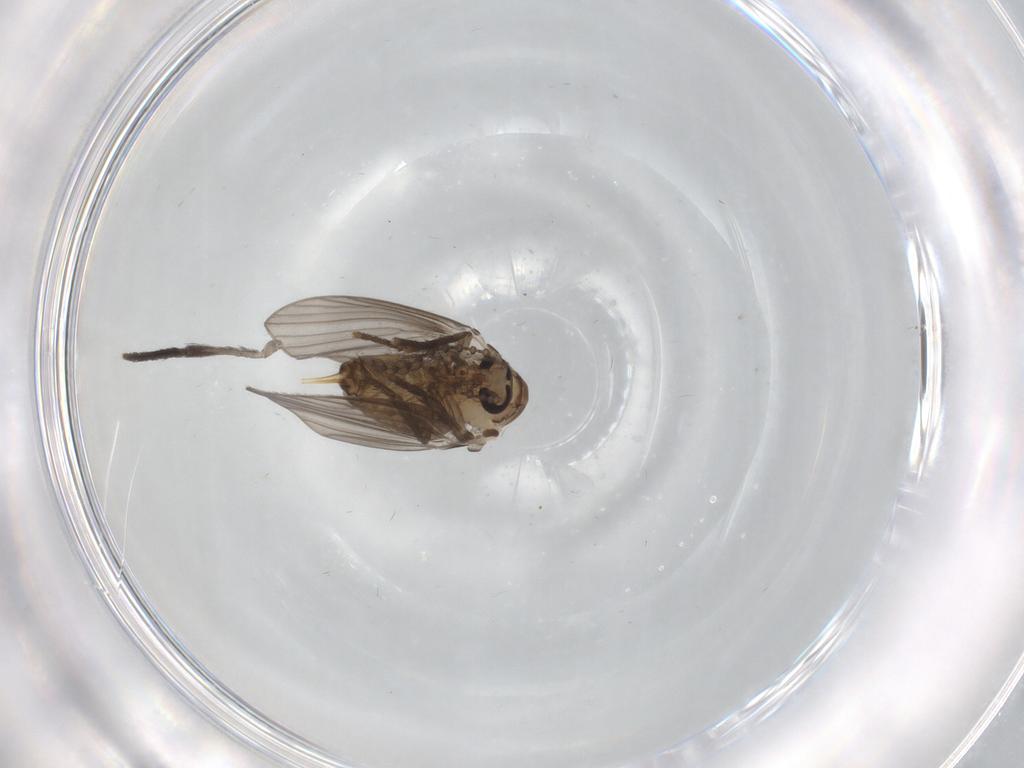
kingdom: Animalia
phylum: Arthropoda
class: Insecta
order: Diptera
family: Psychodidae
